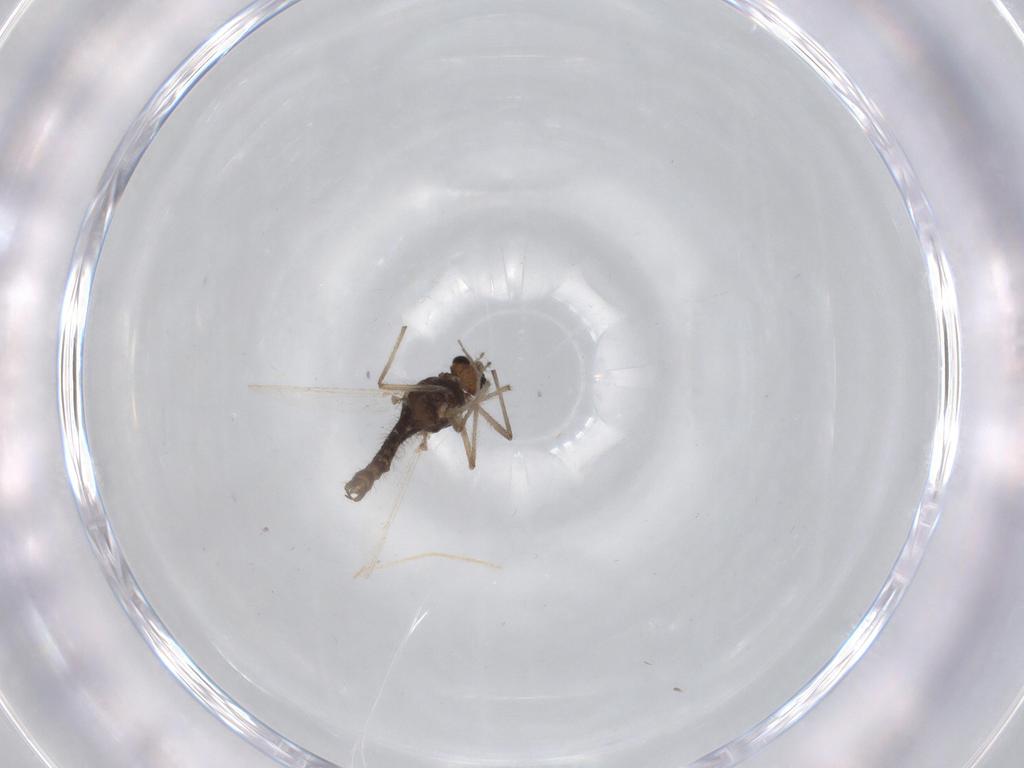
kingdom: Animalia
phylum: Arthropoda
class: Insecta
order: Diptera
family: Chironomidae
